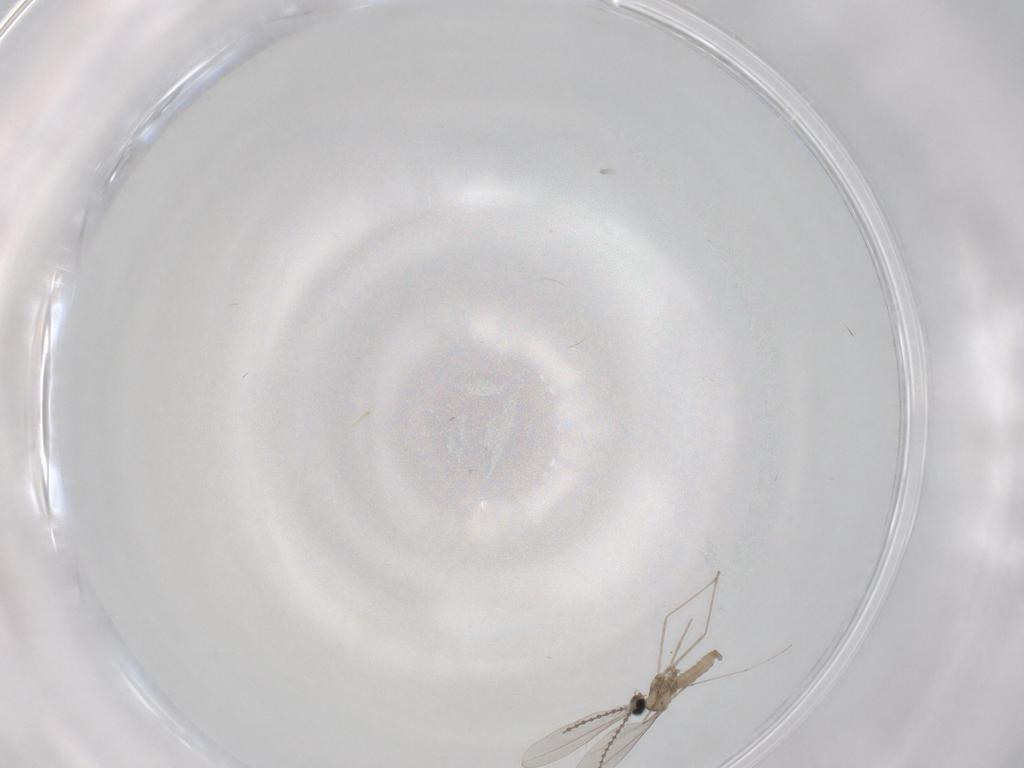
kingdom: Animalia
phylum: Arthropoda
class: Insecta
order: Diptera
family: Cecidomyiidae
